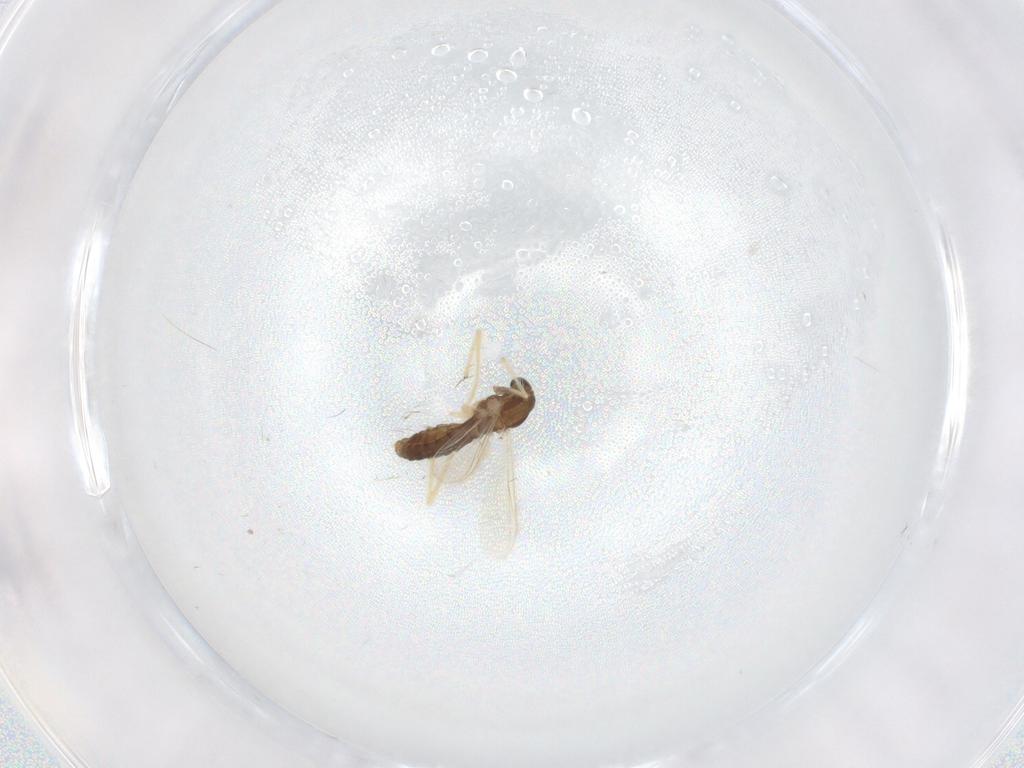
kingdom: Animalia
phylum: Arthropoda
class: Insecta
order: Diptera
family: Chironomidae
